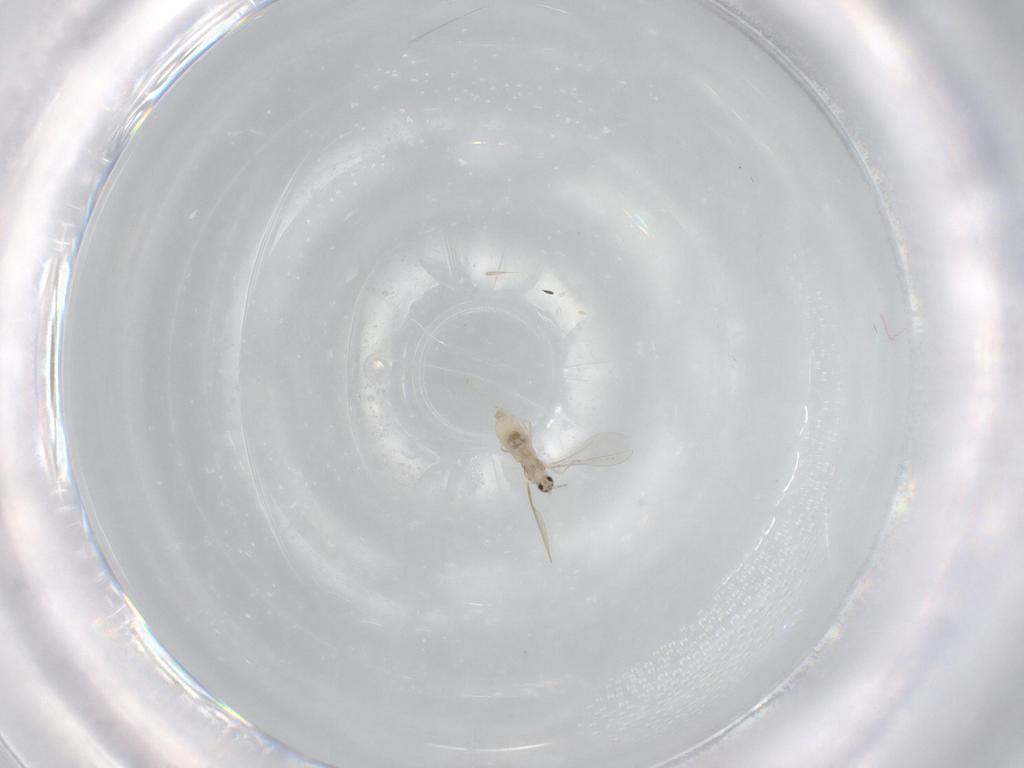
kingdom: Animalia
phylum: Arthropoda
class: Insecta
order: Diptera
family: Cecidomyiidae
